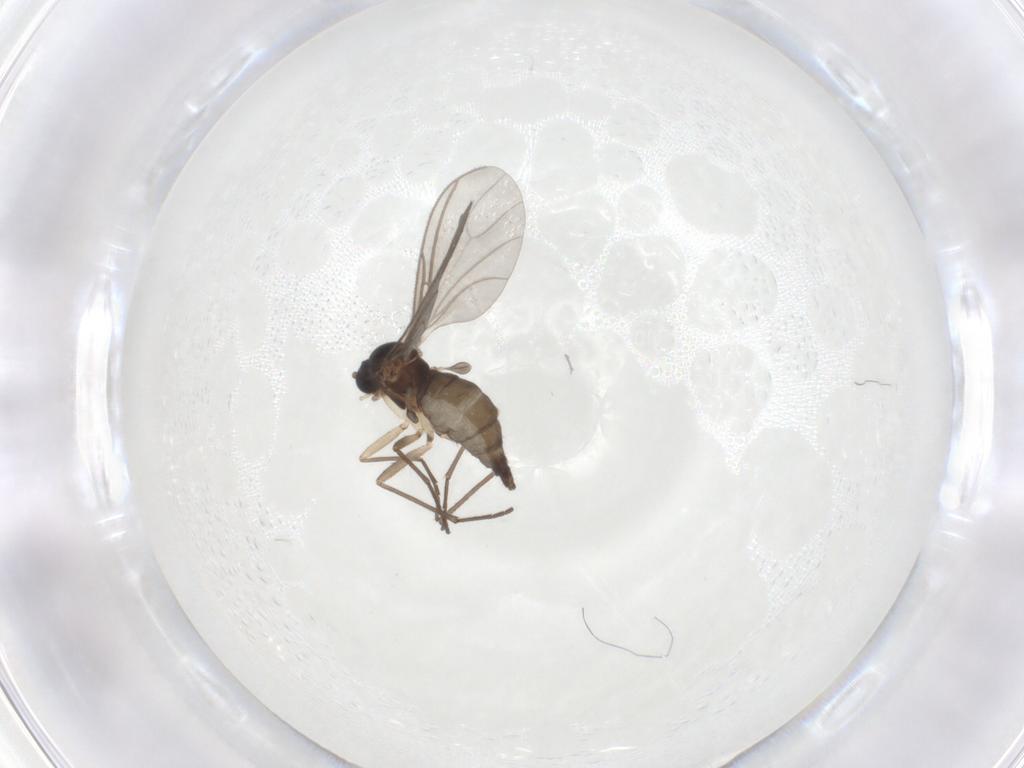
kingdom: Animalia
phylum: Arthropoda
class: Insecta
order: Diptera
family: Sciaridae
